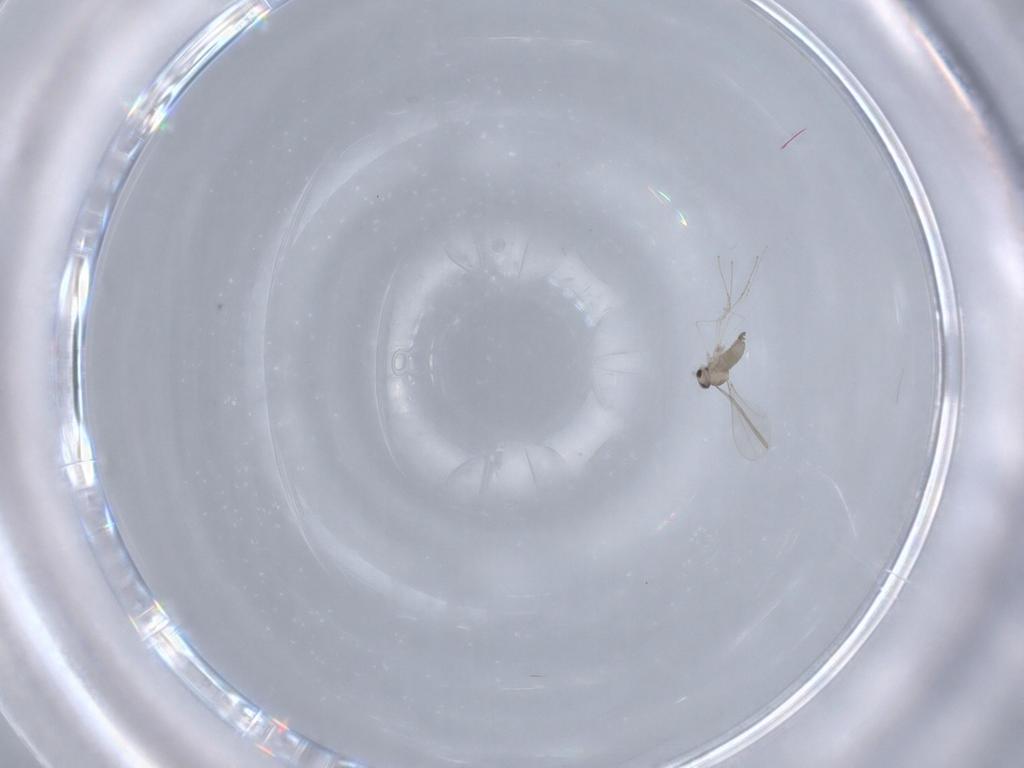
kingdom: Animalia
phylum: Arthropoda
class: Insecta
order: Diptera
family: Cecidomyiidae
